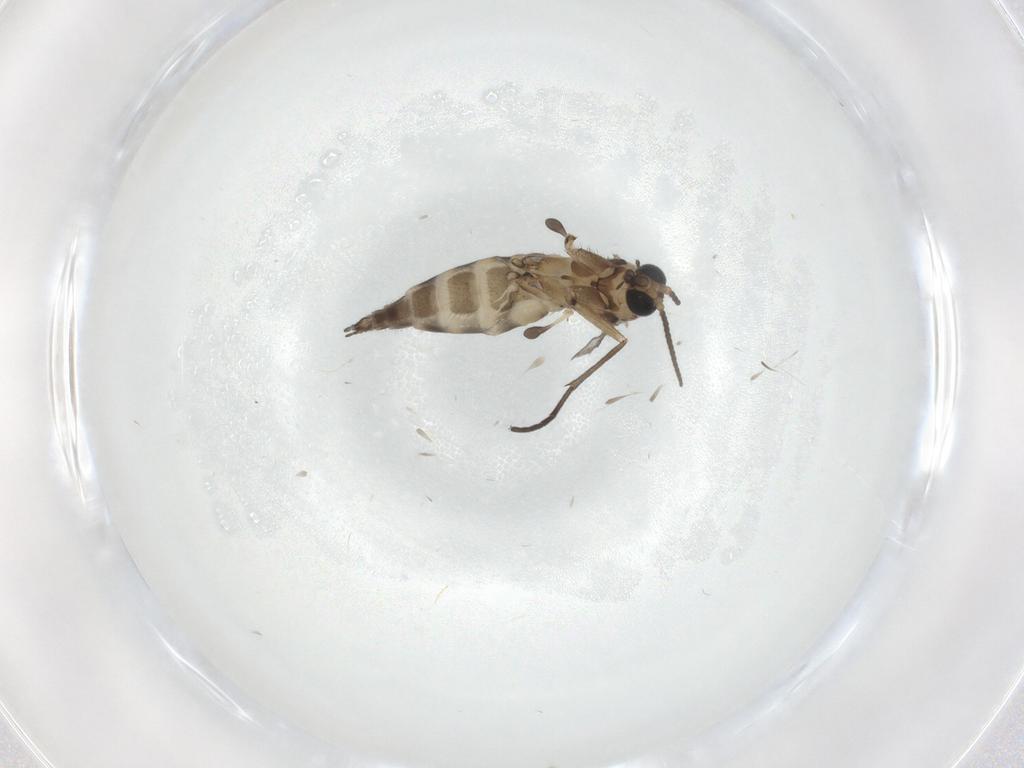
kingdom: Animalia
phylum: Arthropoda
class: Insecta
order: Diptera
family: Sciaridae
